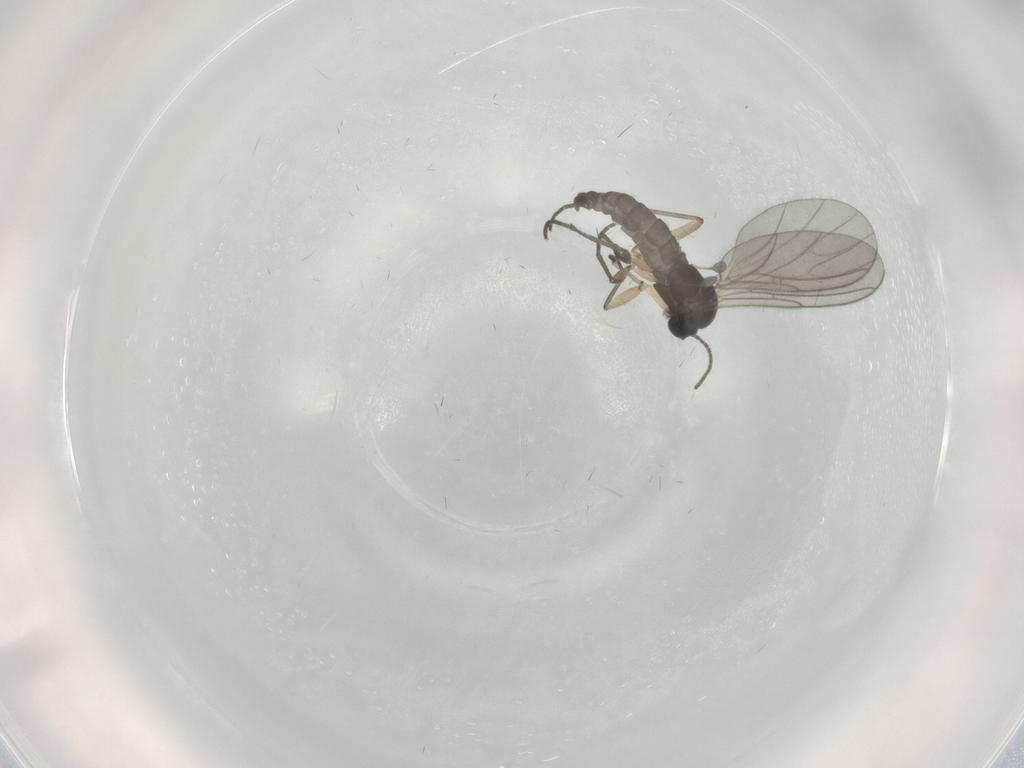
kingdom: Animalia
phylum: Arthropoda
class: Insecta
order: Diptera
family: Sciaridae
